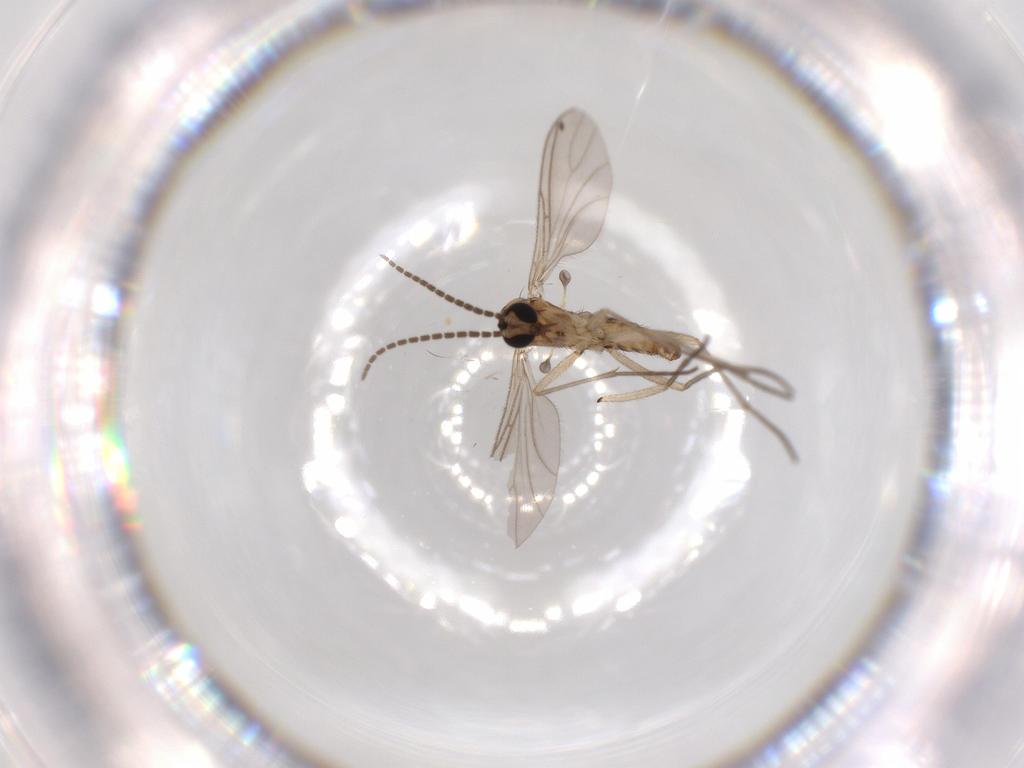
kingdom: Animalia
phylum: Arthropoda
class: Insecta
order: Diptera
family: Sciaridae
